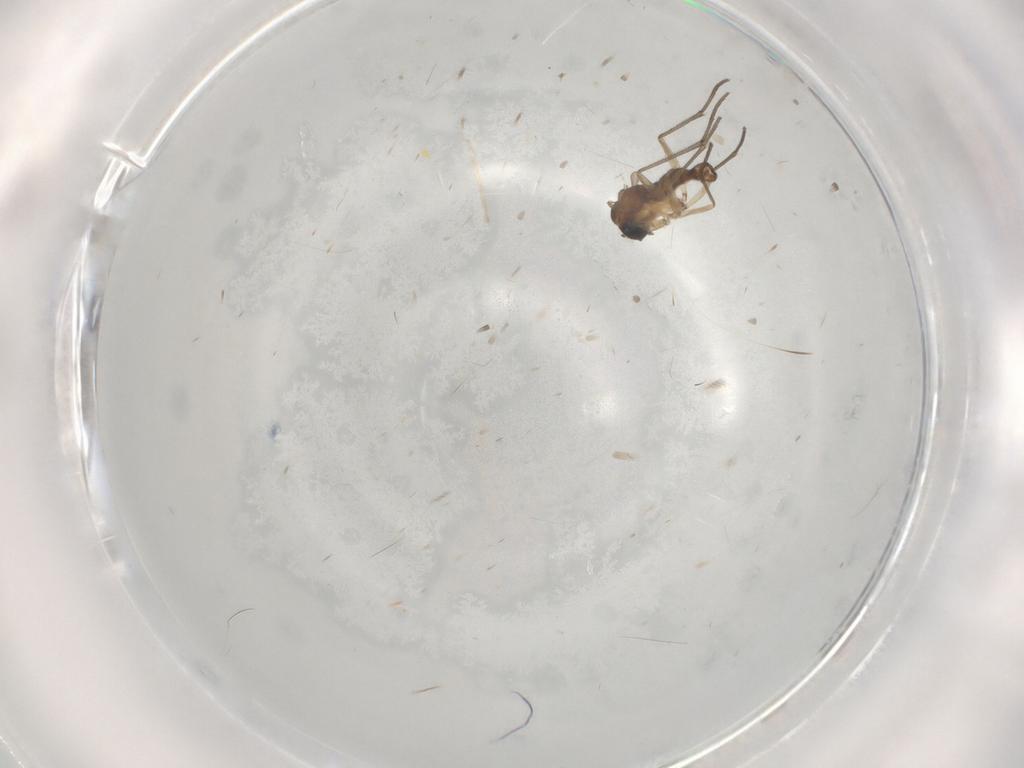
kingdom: Animalia
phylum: Arthropoda
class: Insecta
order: Diptera
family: Sciaridae
